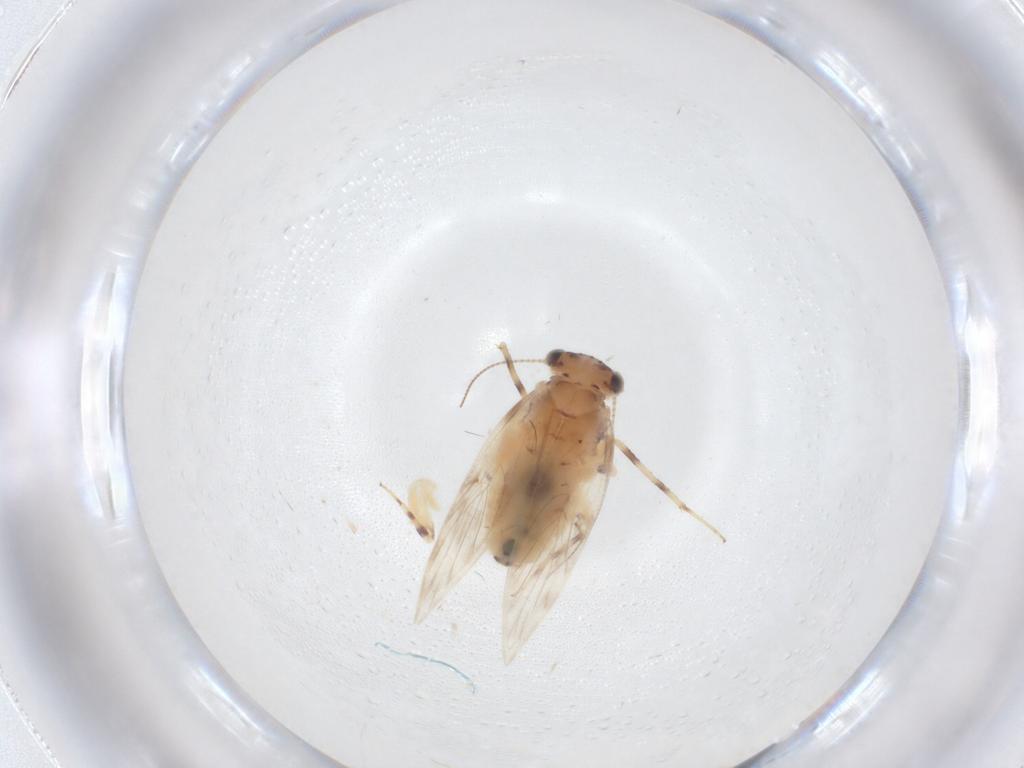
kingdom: Animalia
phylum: Arthropoda
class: Insecta
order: Psocodea
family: Lepidopsocidae
